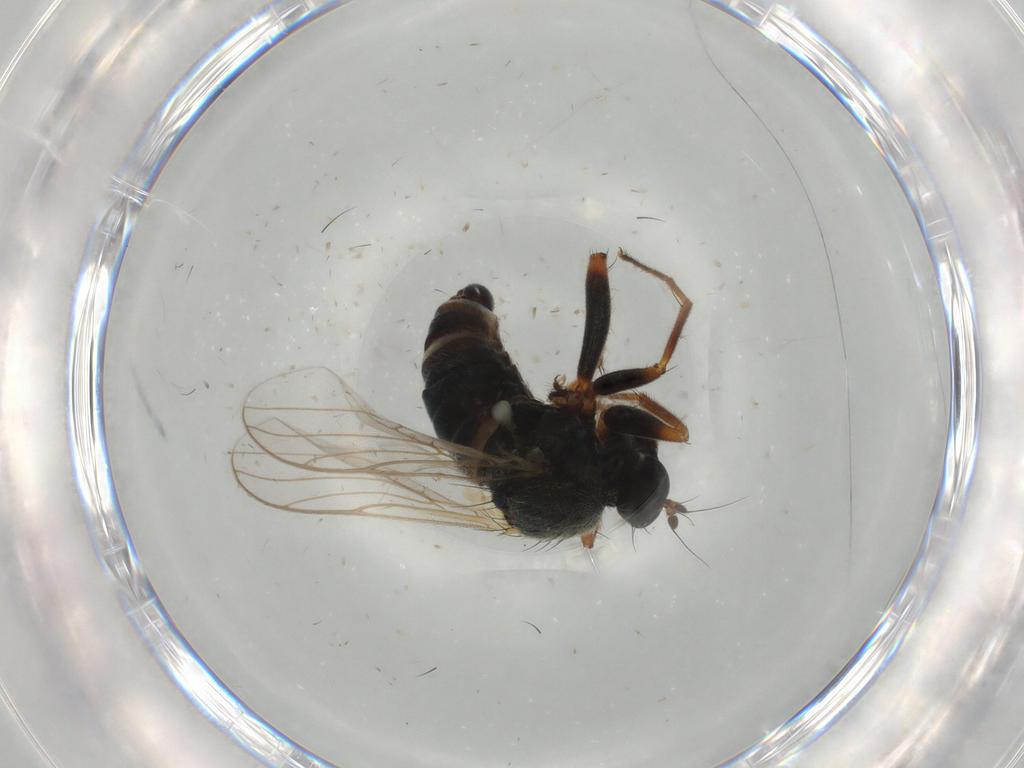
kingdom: Animalia
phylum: Arthropoda
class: Insecta
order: Diptera
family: Hybotidae
